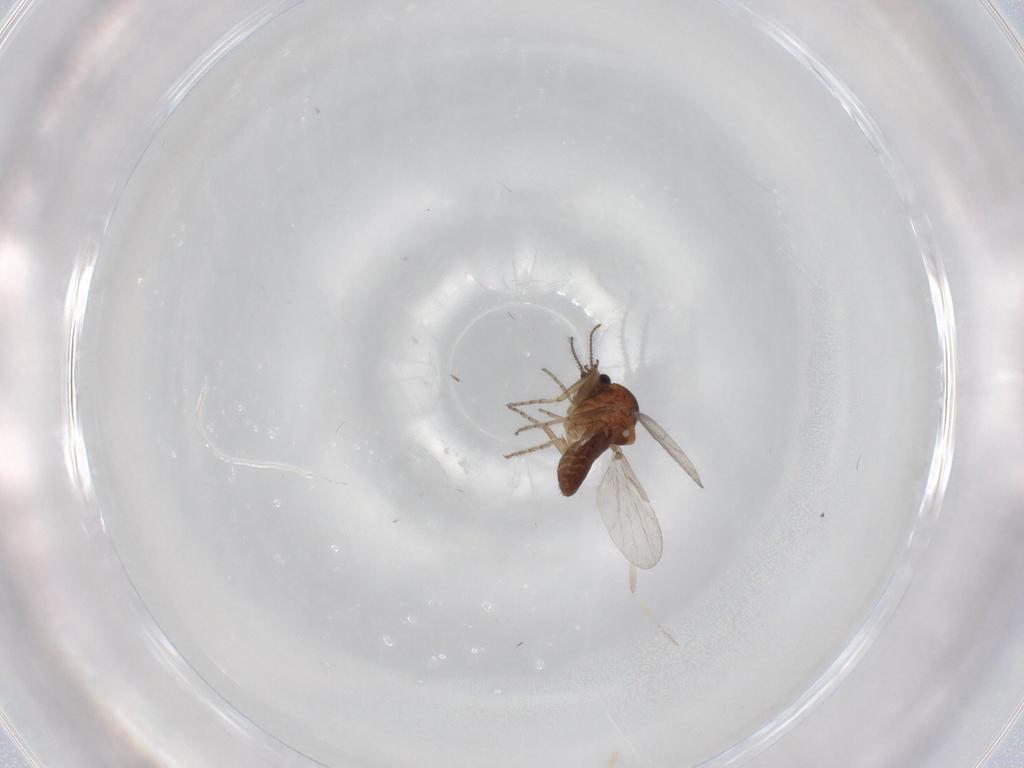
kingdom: Animalia
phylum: Arthropoda
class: Insecta
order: Diptera
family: Ceratopogonidae
